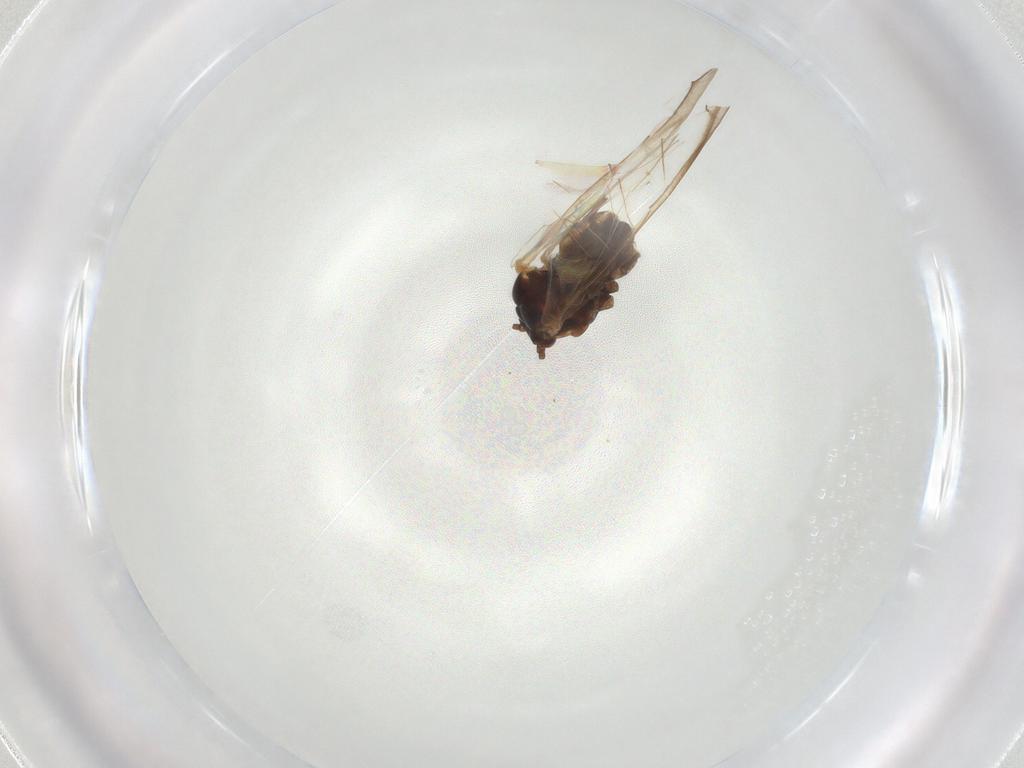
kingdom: Animalia
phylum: Arthropoda
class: Insecta
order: Hemiptera
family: Aphididae
